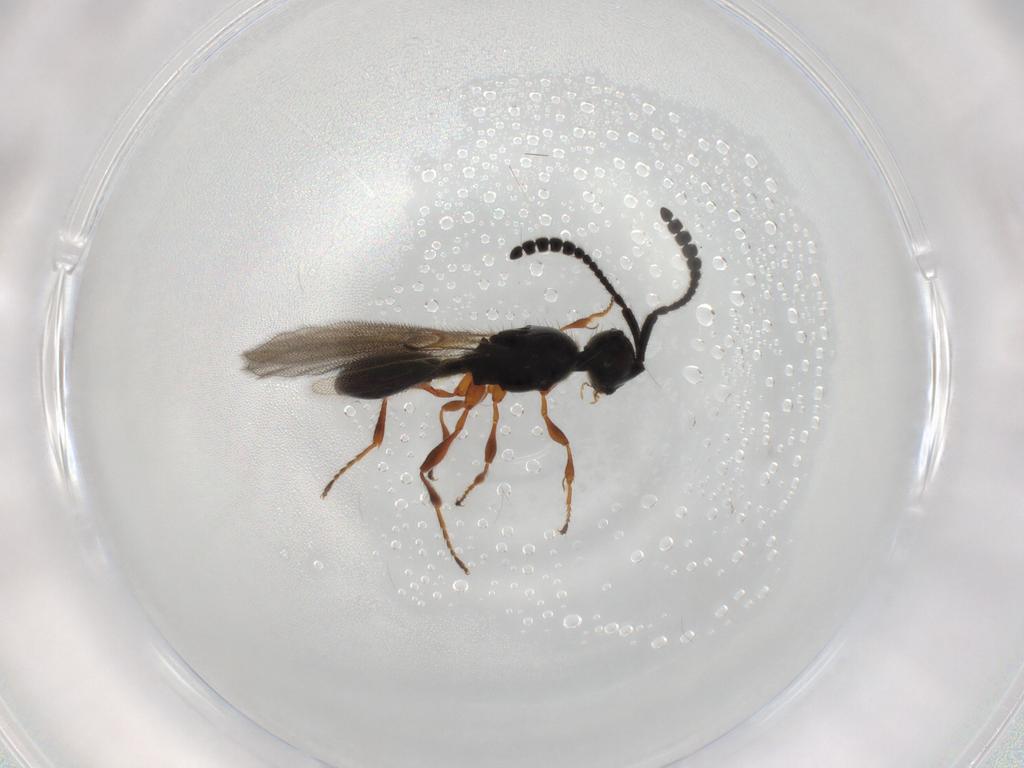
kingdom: Animalia
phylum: Arthropoda
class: Insecta
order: Hymenoptera
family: Diapriidae
